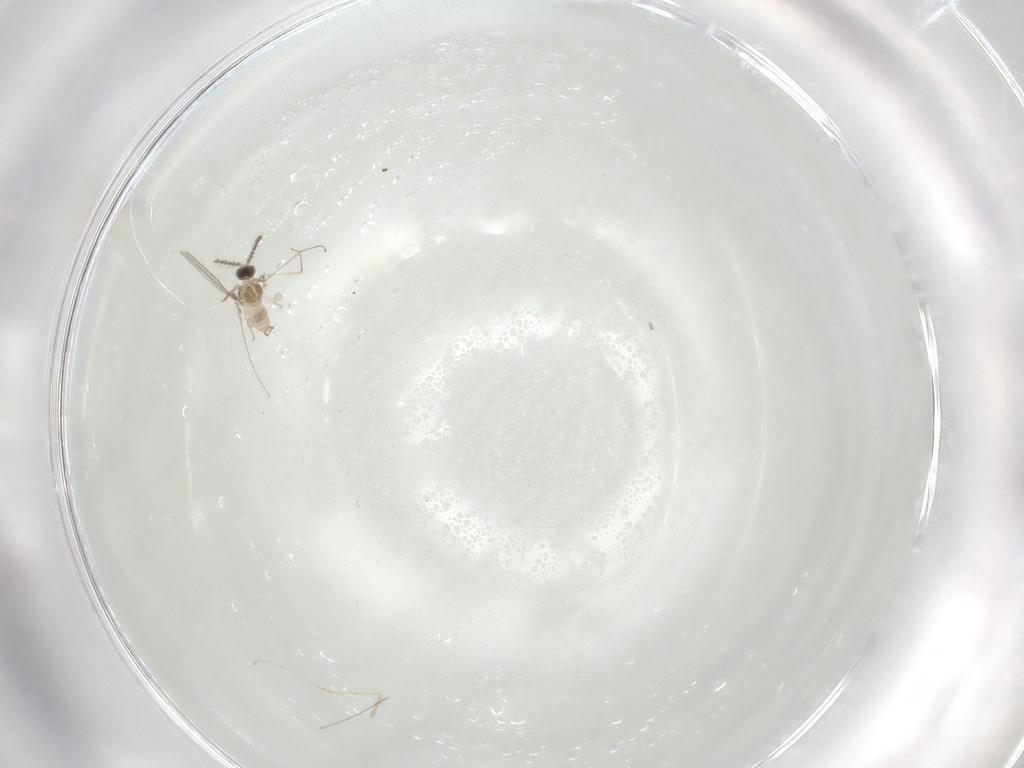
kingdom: Animalia
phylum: Arthropoda
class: Insecta
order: Diptera
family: Cecidomyiidae
